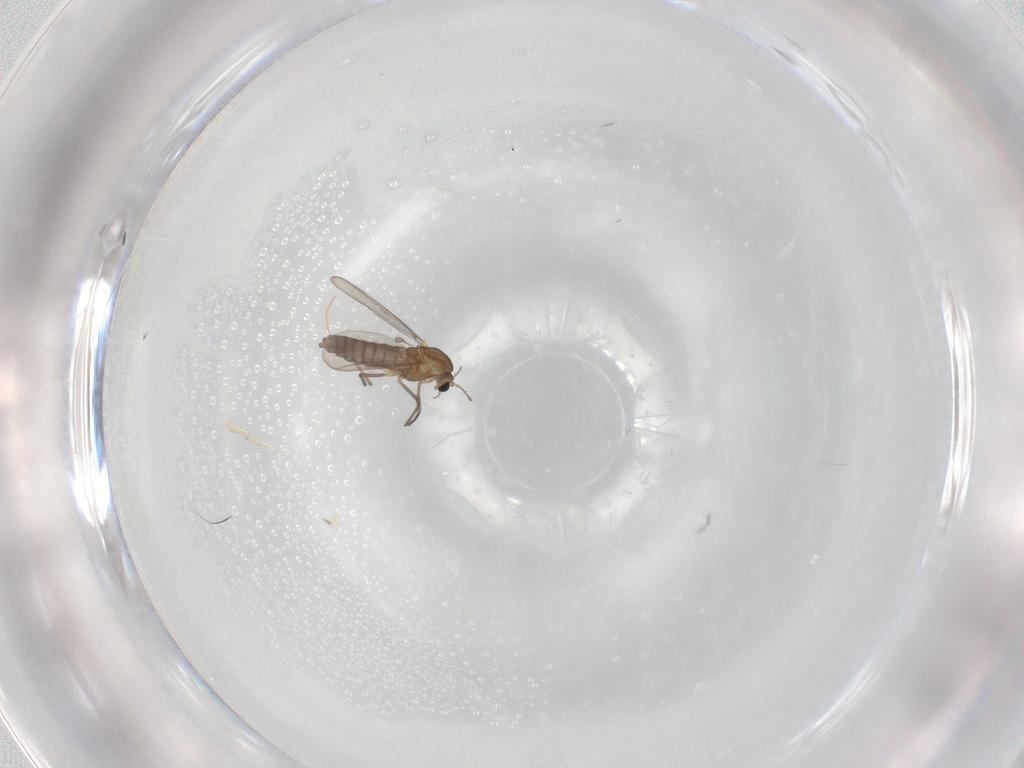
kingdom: Animalia
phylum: Arthropoda
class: Insecta
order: Diptera
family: Chironomidae
